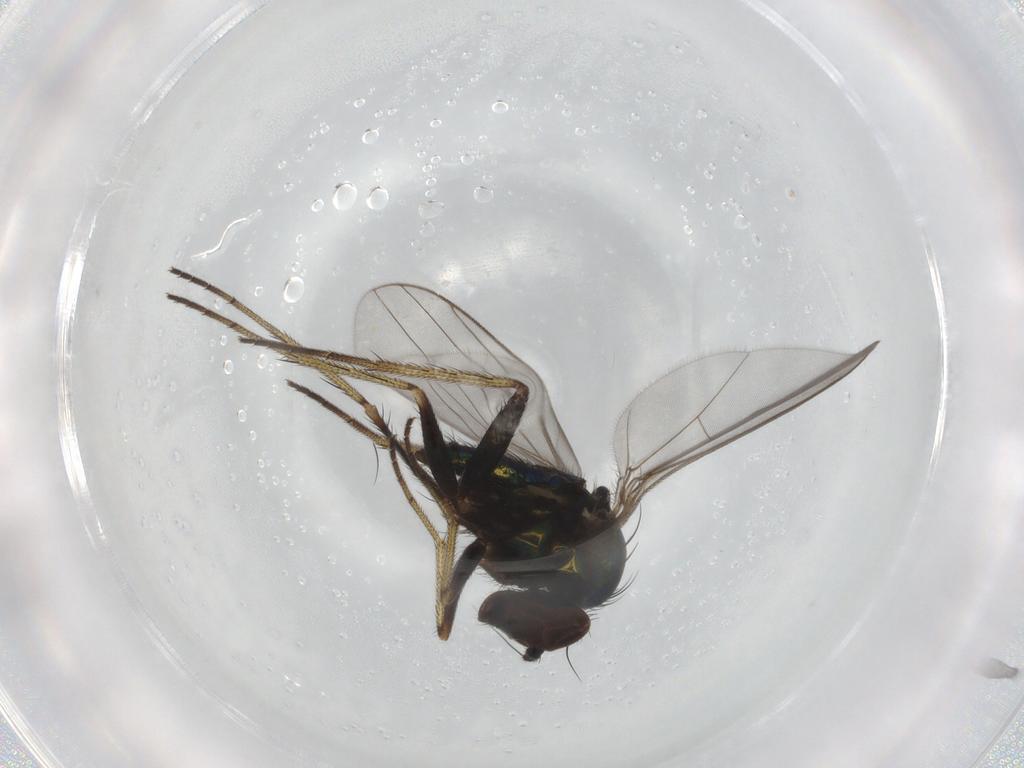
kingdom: Animalia
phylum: Arthropoda
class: Insecta
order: Diptera
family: Dolichopodidae
